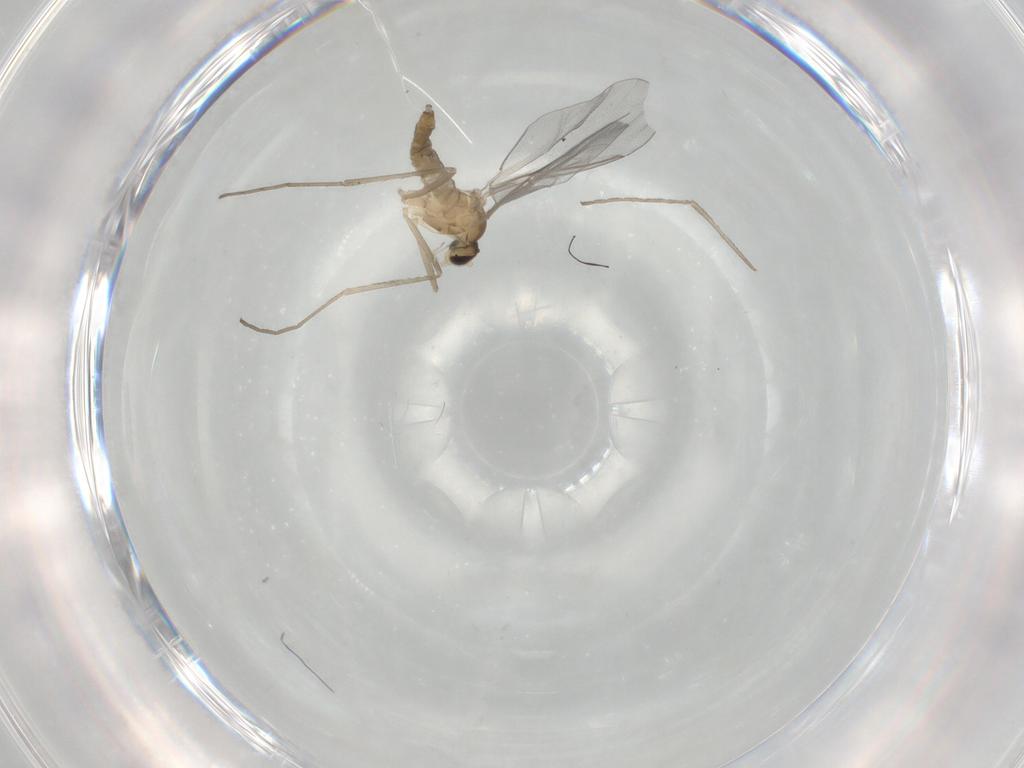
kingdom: Animalia
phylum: Arthropoda
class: Insecta
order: Diptera
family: Cecidomyiidae
